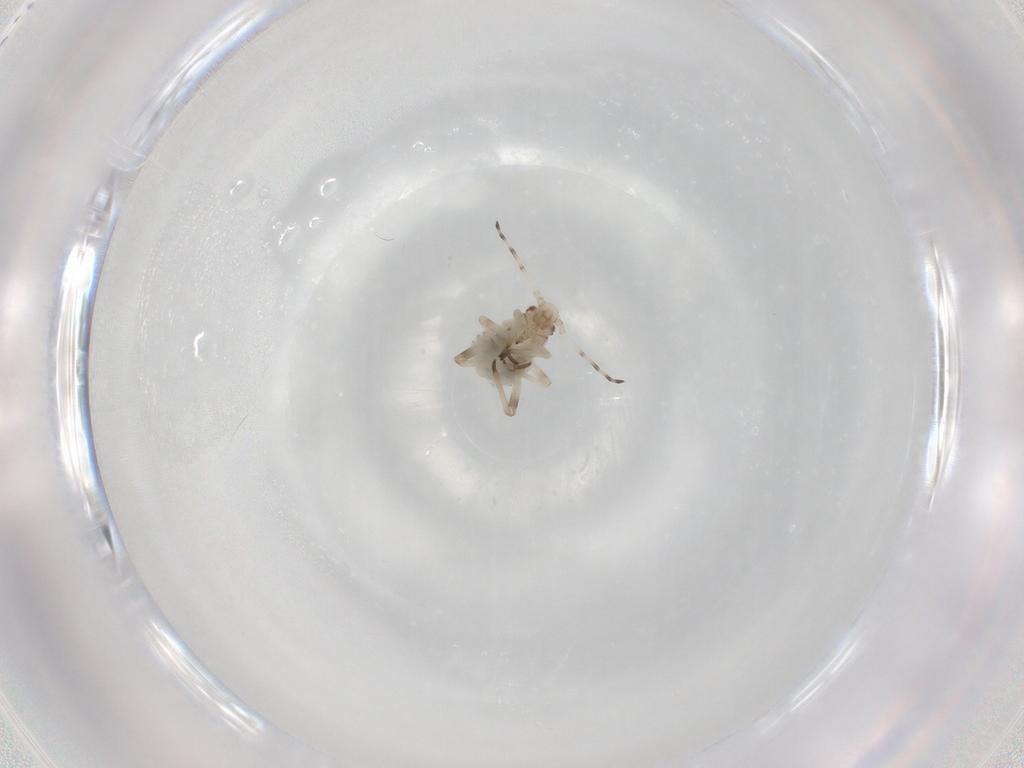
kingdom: Animalia
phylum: Arthropoda
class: Insecta
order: Hemiptera
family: Aphididae
